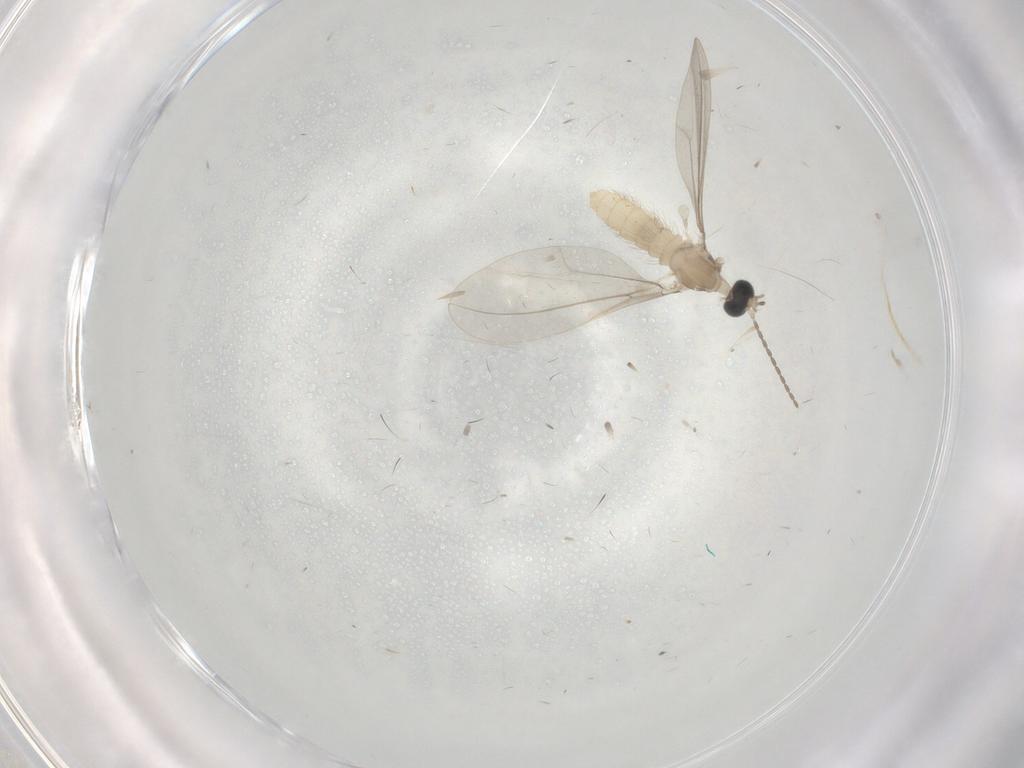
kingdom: Animalia
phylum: Arthropoda
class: Insecta
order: Diptera
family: Cecidomyiidae
